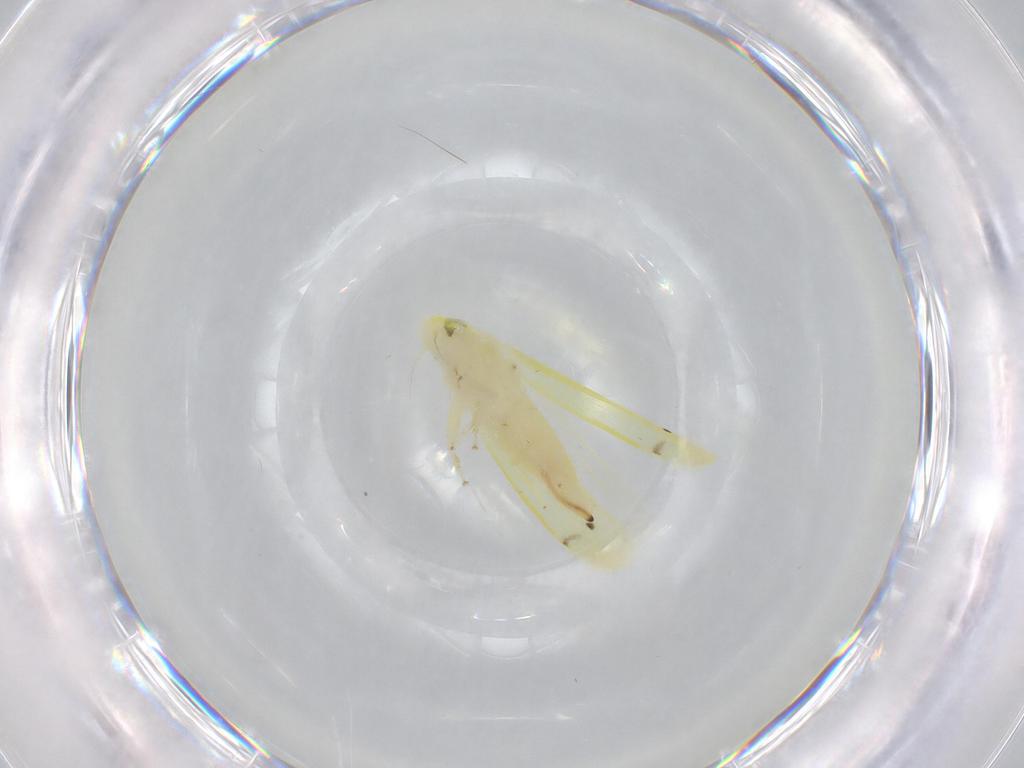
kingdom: Animalia
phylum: Arthropoda
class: Insecta
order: Hemiptera
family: Cicadellidae
